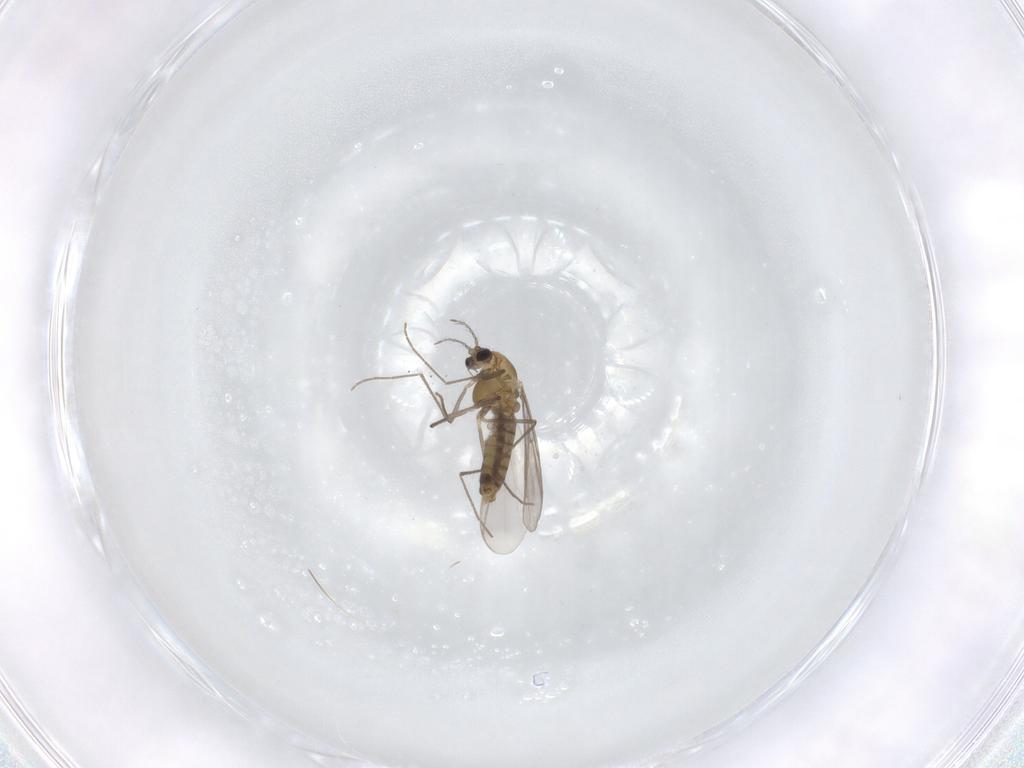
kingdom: Animalia
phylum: Arthropoda
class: Insecta
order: Diptera
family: Chironomidae
